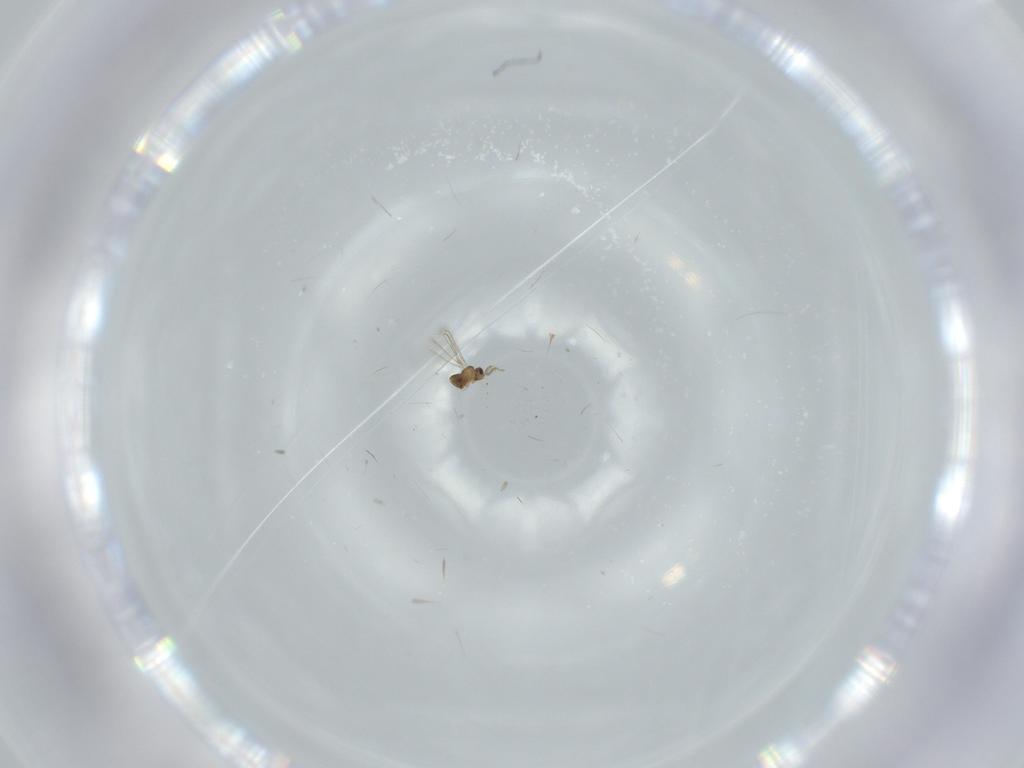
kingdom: Animalia
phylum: Arthropoda
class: Insecta
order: Hymenoptera
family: Mymaridae
